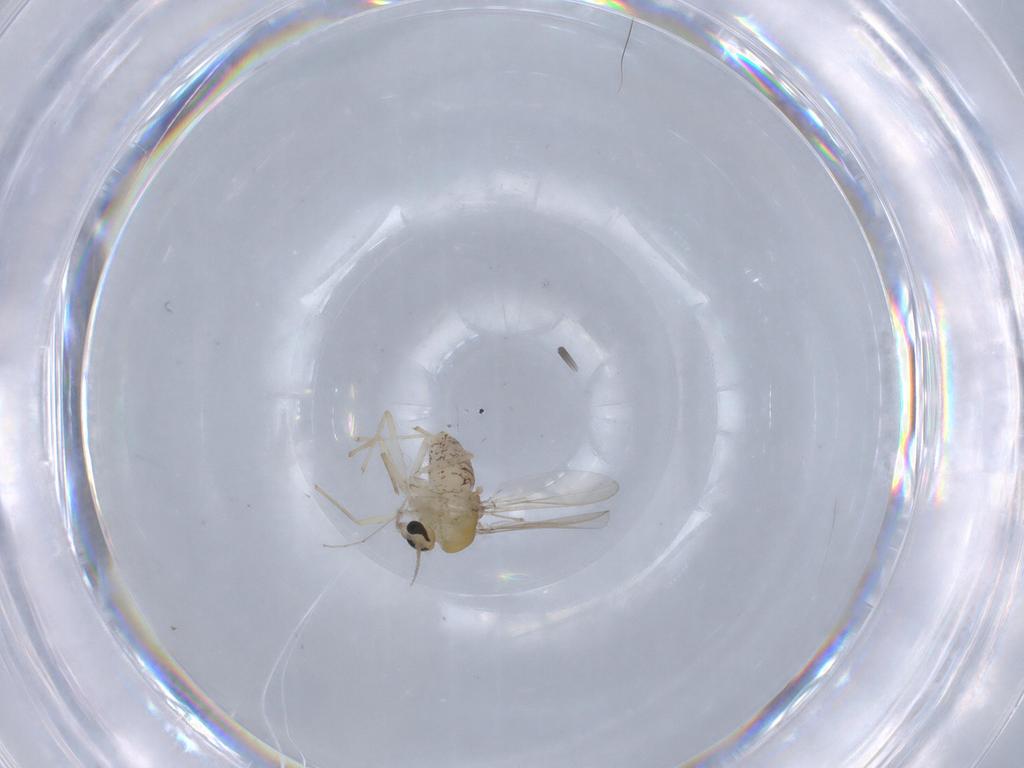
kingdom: Animalia
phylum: Arthropoda
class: Insecta
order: Diptera
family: Chironomidae
